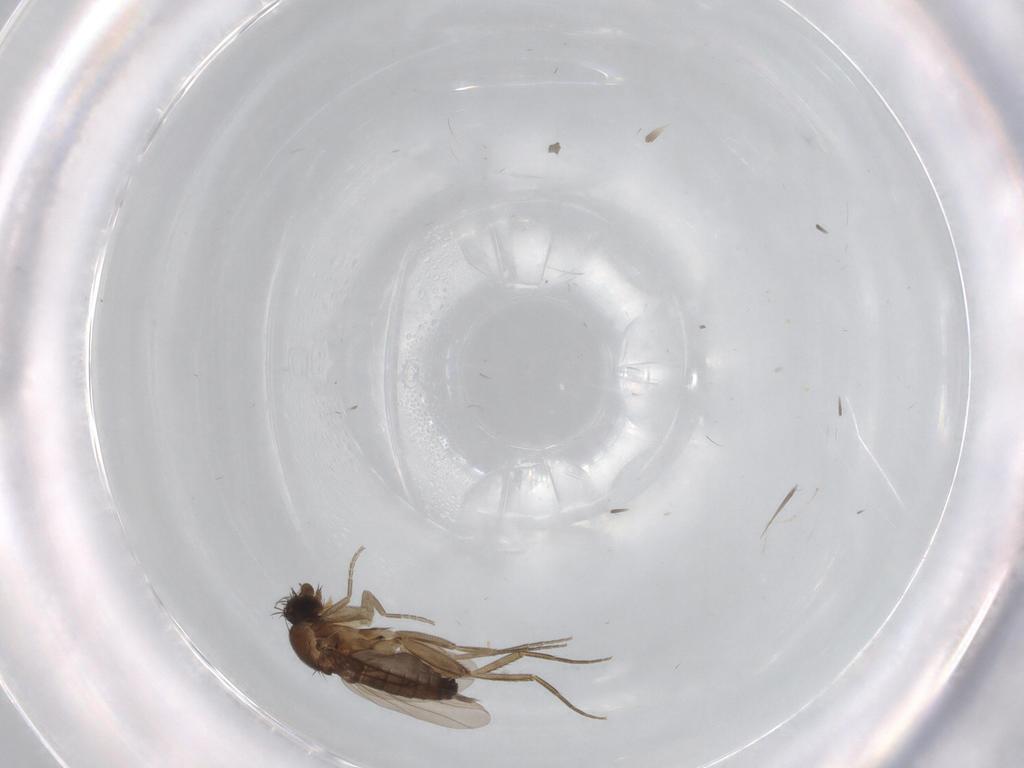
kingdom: Animalia
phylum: Arthropoda
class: Insecta
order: Diptera
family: Phoridae
